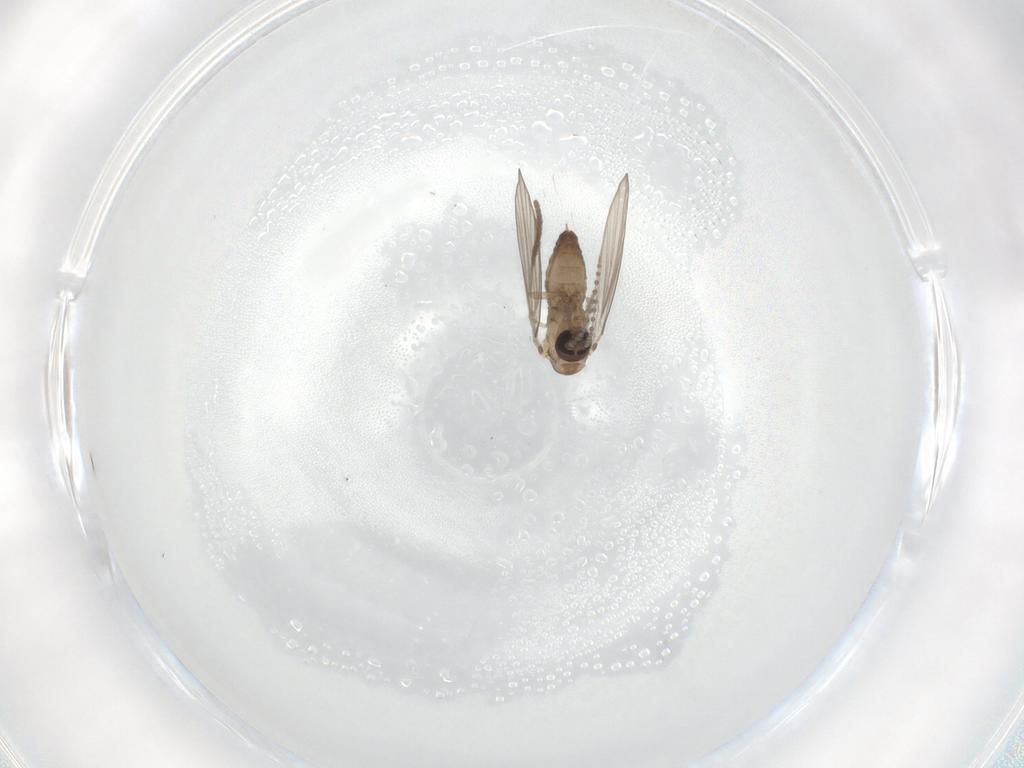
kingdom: Animalia
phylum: Arthropoda
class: Insecta
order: Diptera
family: Psychodidae
